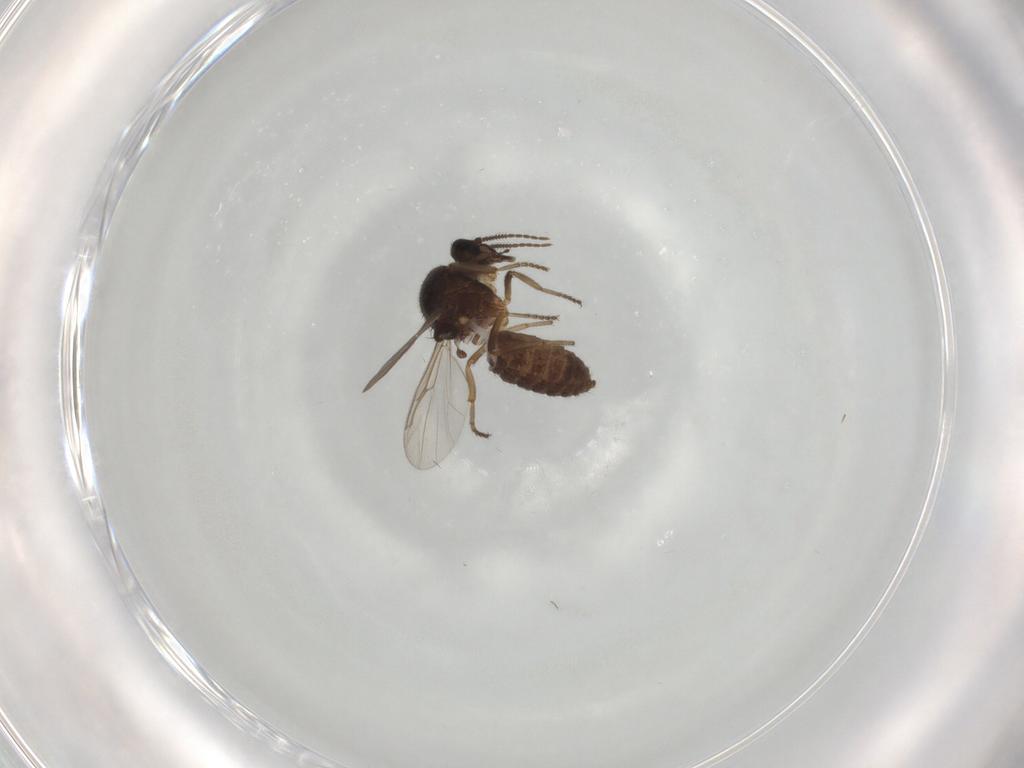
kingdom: Animalia
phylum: Arthropoda
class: Insecta
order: Diptera
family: Ceratopogonidae
